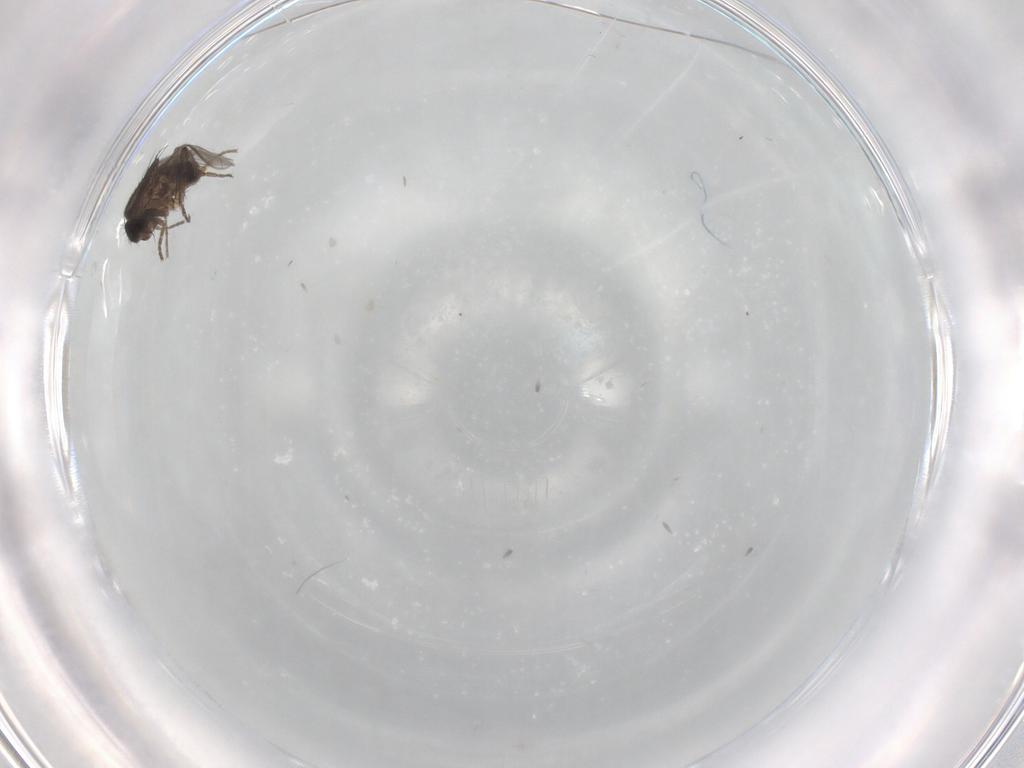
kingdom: Animalia
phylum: Arthropoda
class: Insecta
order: Diptera
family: Sphaeroceridae
